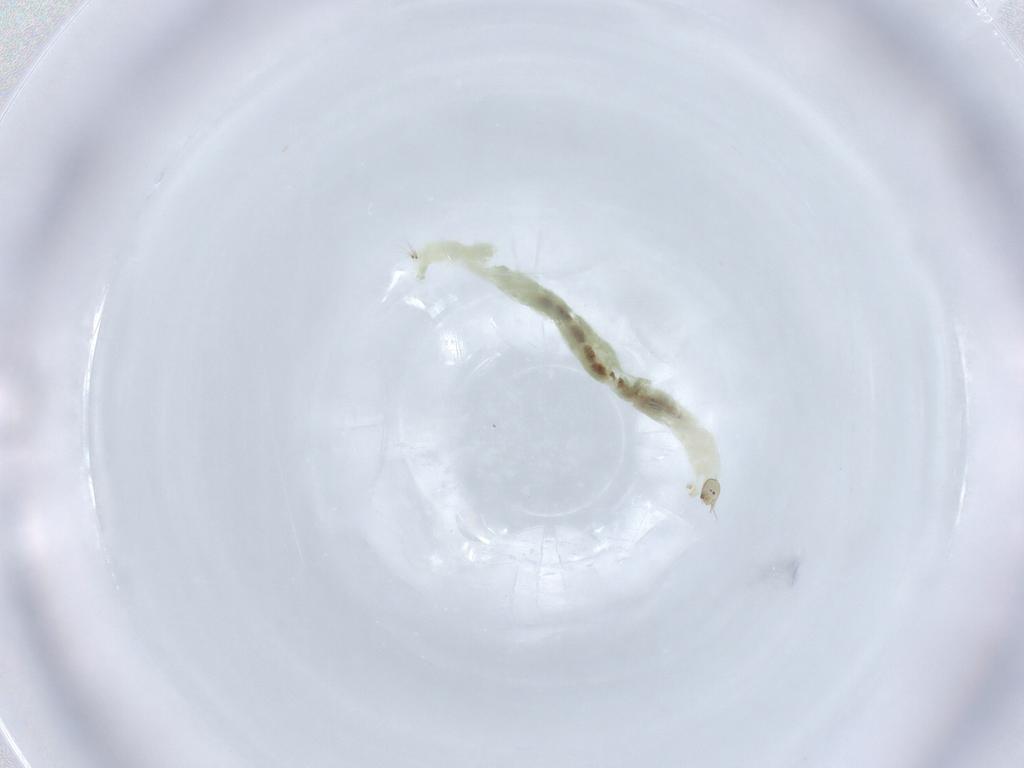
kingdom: Animalia
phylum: Arthropoda
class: Insecta
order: Diptera
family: Chironomidae
